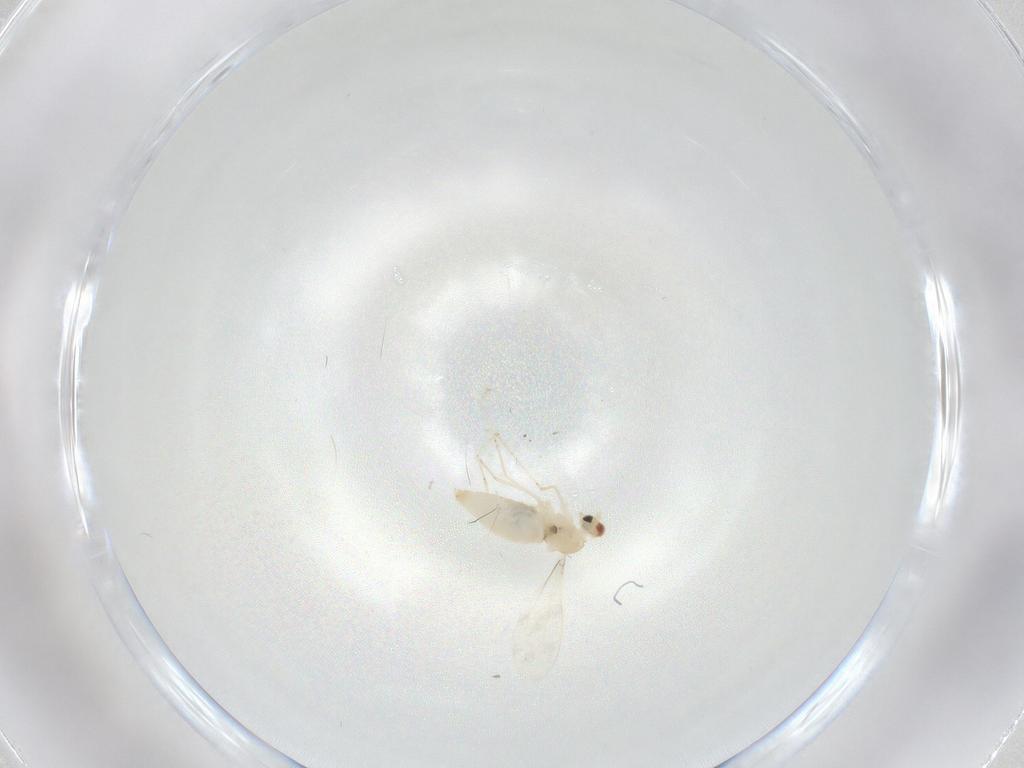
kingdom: Animalia
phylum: Arthropoda
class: Insecta
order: Diptera
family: Cecidomyiidae
